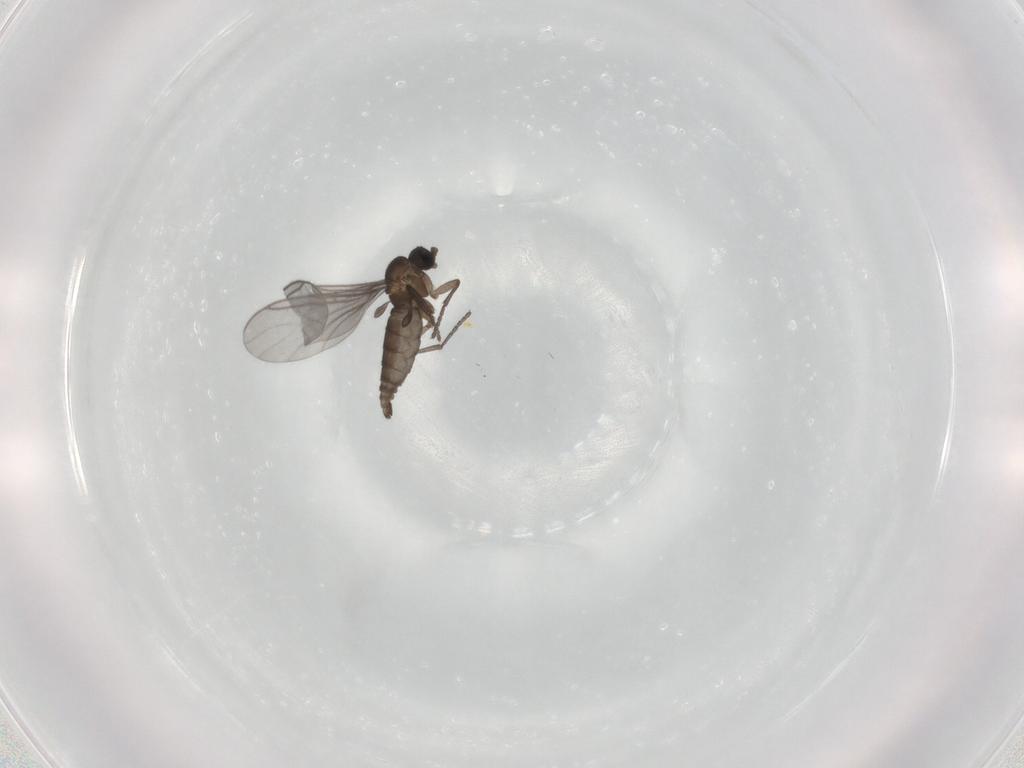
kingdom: Animalia
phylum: Arthropoda
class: Insecta
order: Diptera
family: Sciaridae
